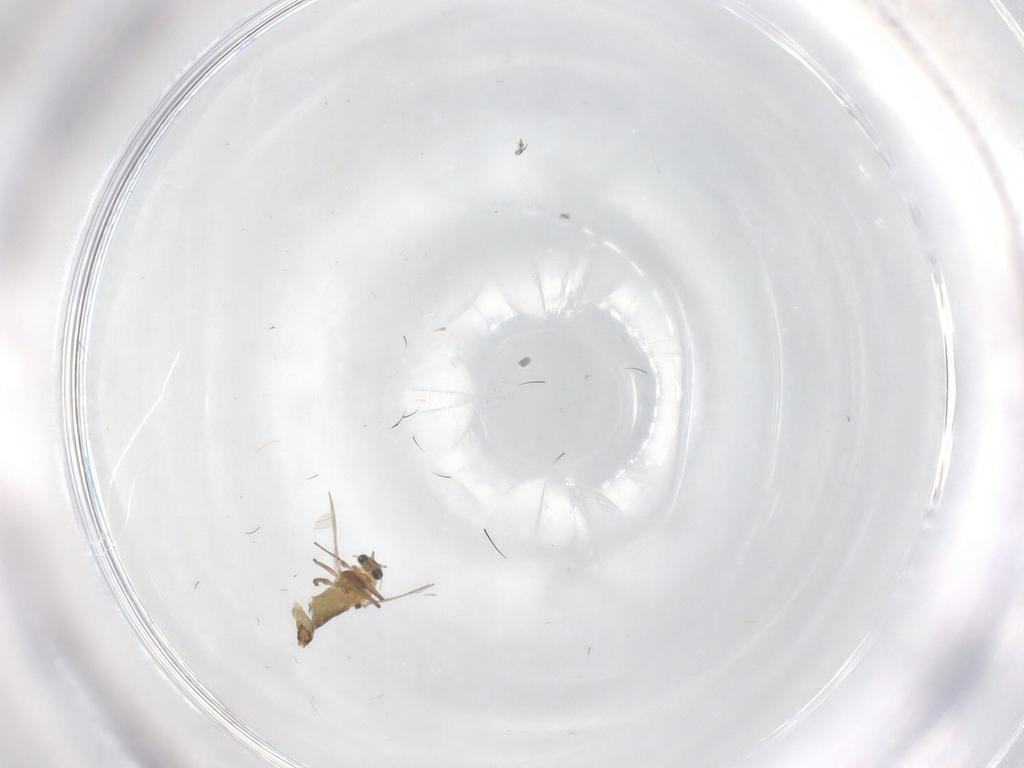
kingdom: Animalia
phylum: Arthropoda
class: Insecta
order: Diptera
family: Chironomidae
